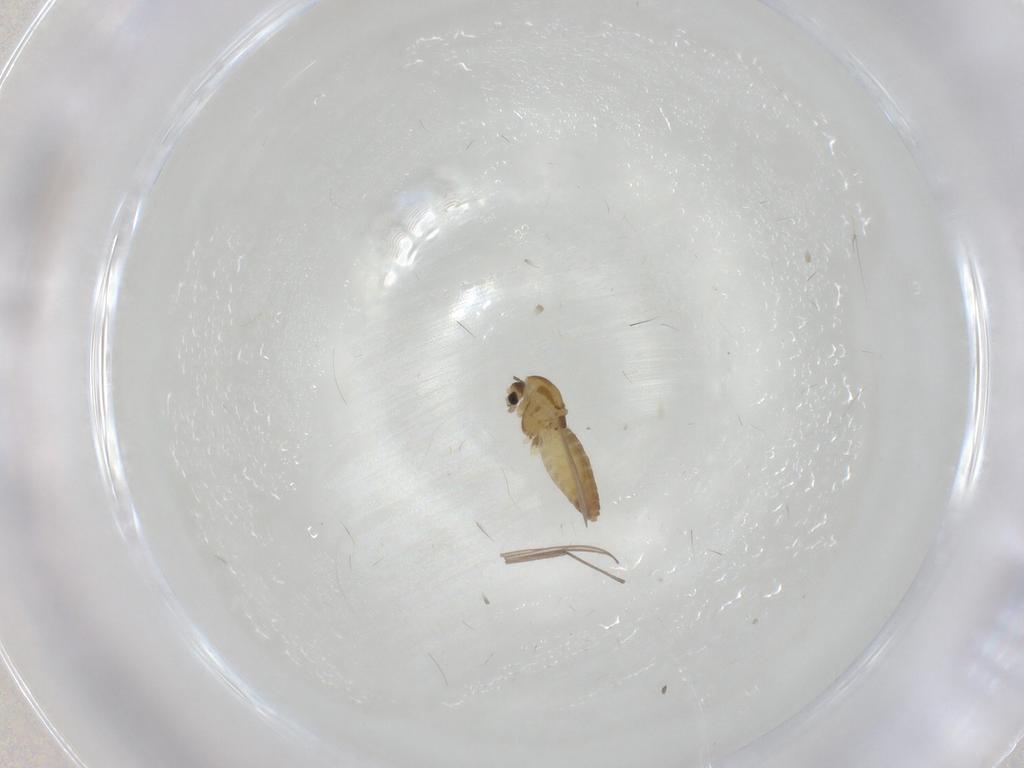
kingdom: Animalia
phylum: Arthropoda
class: Insecta
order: Diptera
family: Chironomidae
